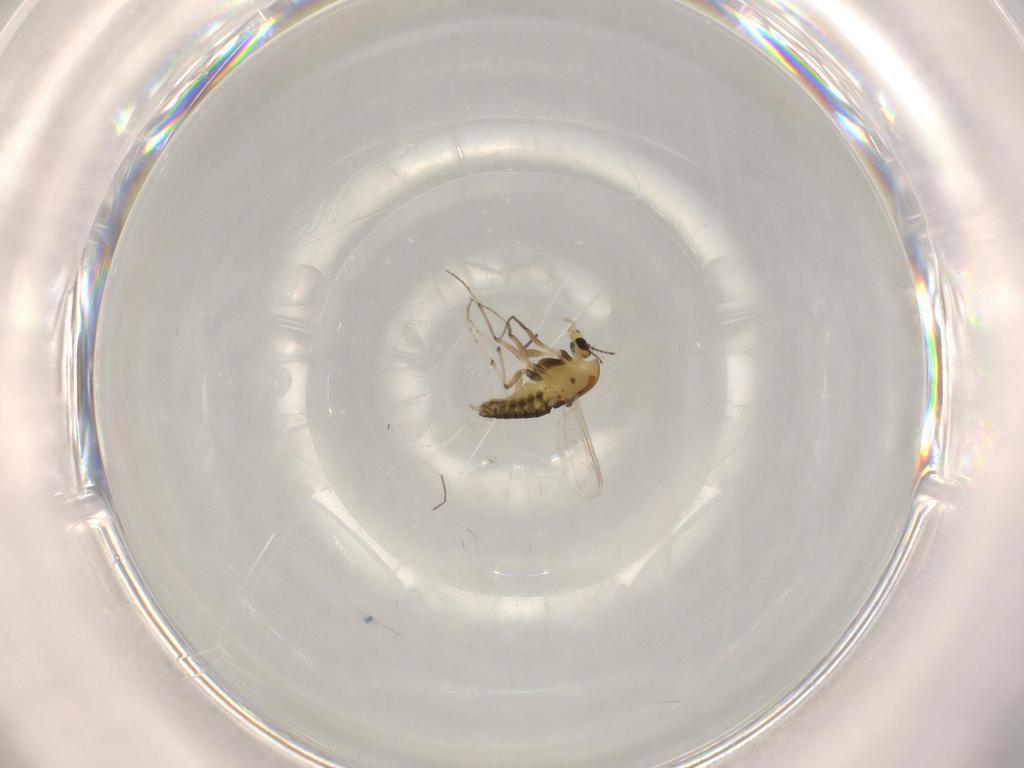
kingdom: Animalia
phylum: Arthropoda
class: Insecta
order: Diptera
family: Chironomidae
